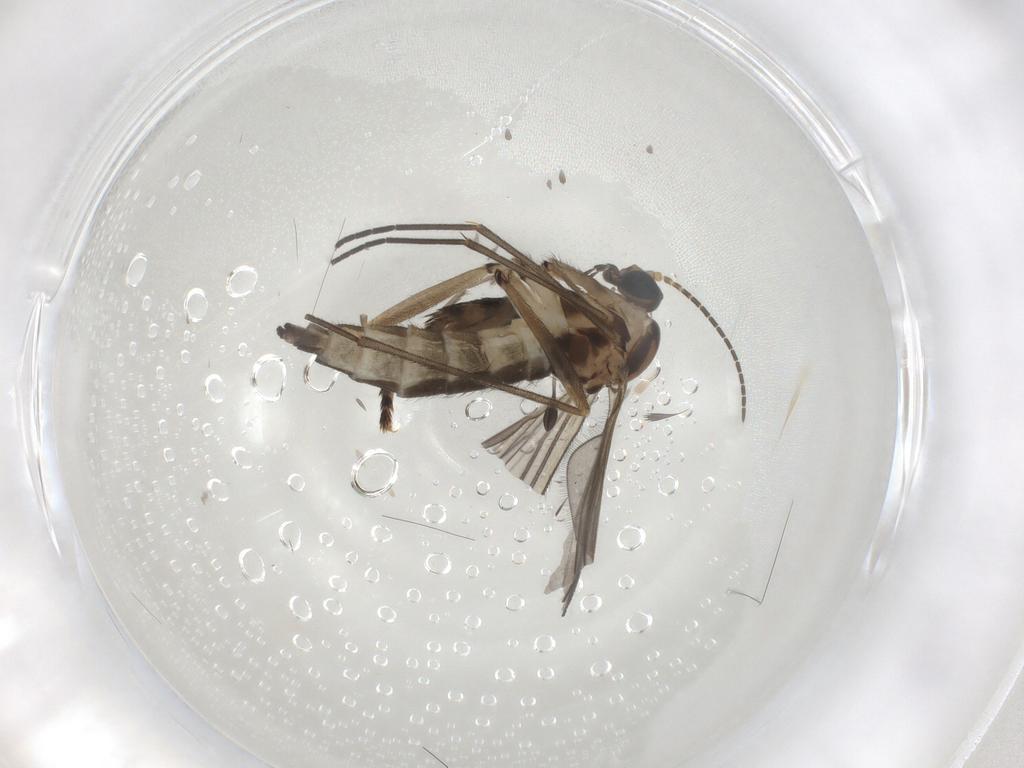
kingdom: Animalia
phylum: Arthropoda
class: Insecta
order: Diptera
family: Sciaridae
